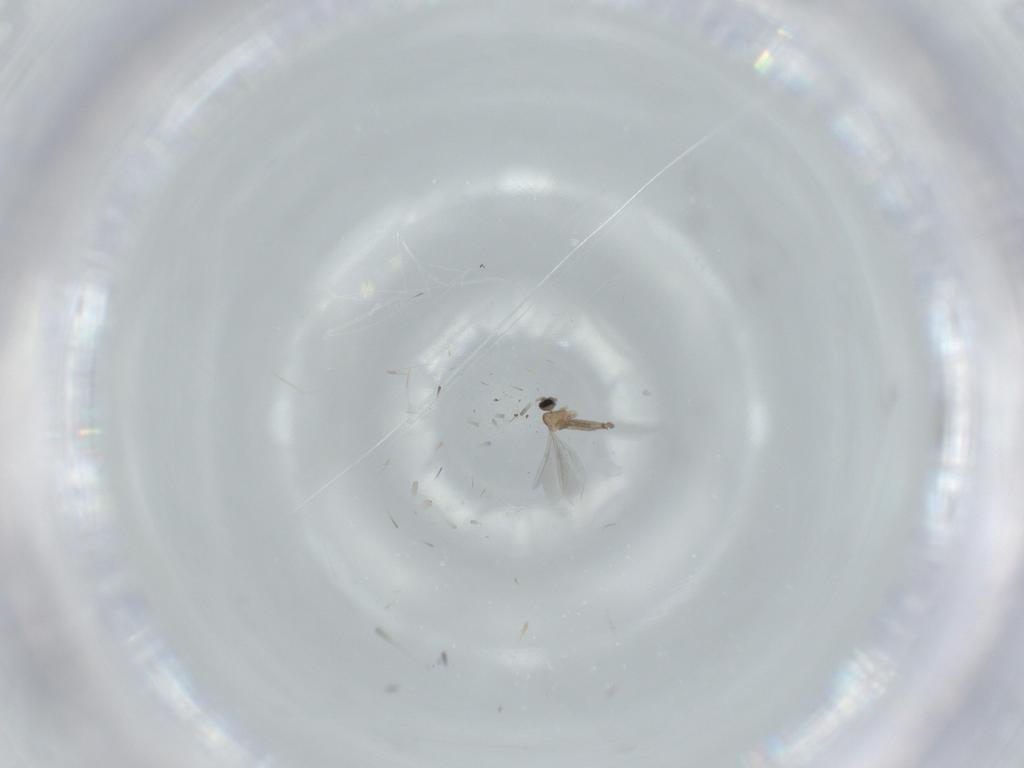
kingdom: Animalia
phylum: Arthropoda
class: Insecta
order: Diptera
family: Cecidomyiidae
